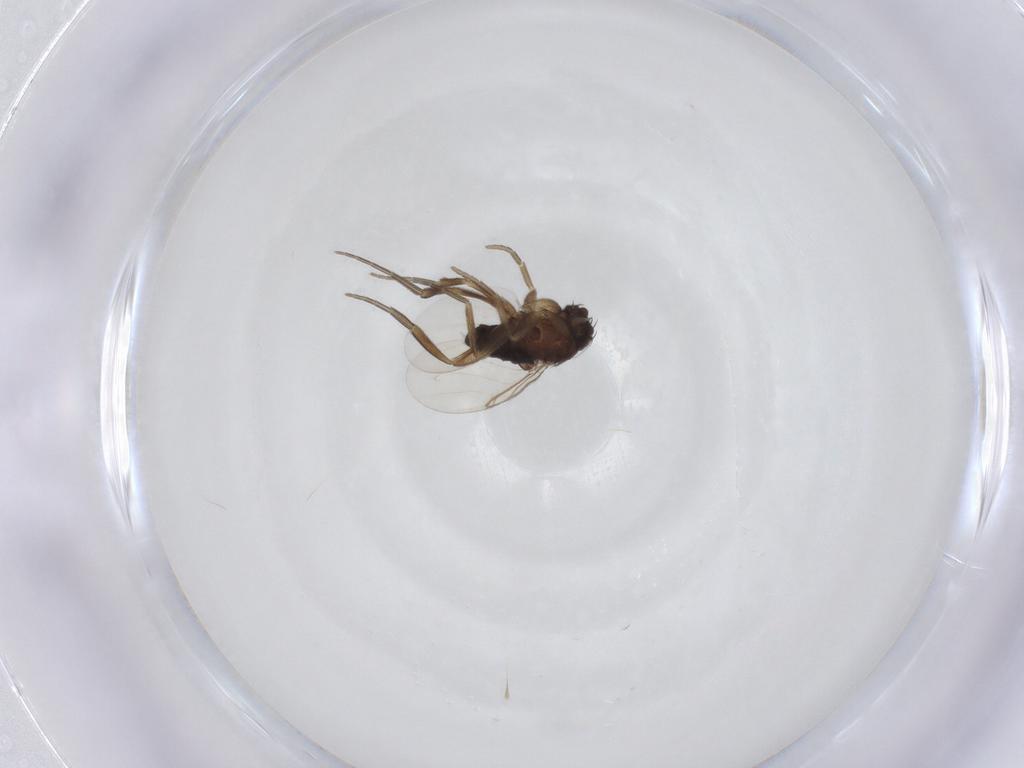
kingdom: Animalia
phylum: Arthropoda
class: Insecta
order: Diptera
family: Phoridae
